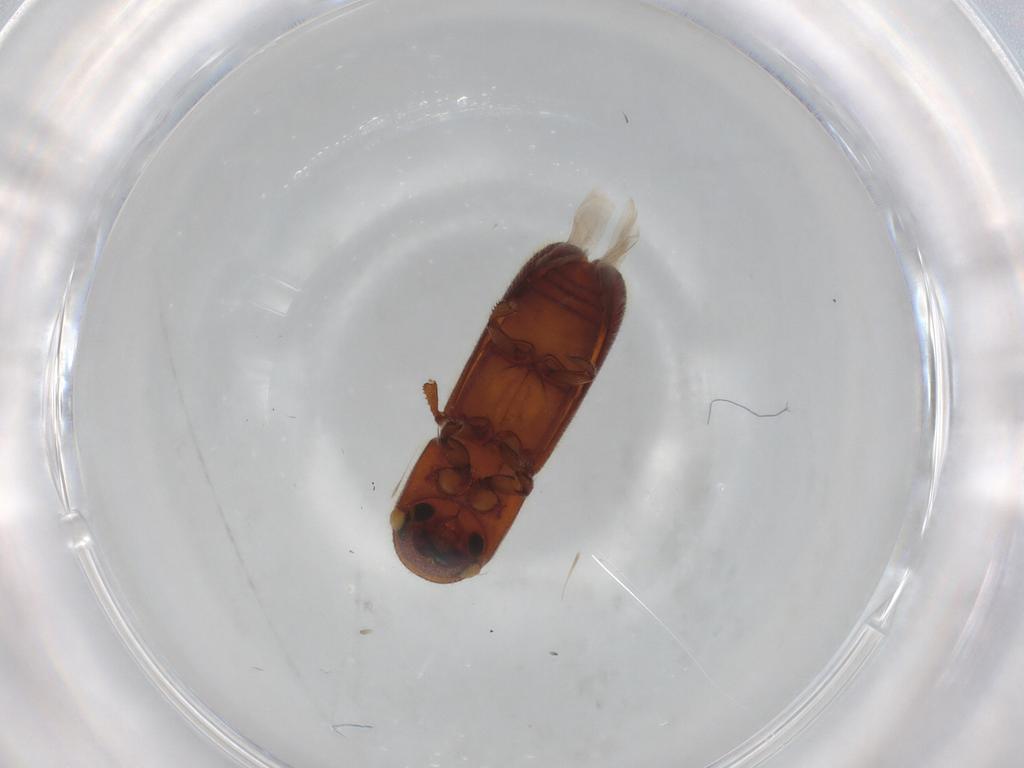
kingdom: Animalia
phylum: Arthropoda
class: Insecta
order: Coleoptera
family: Curculionidae
